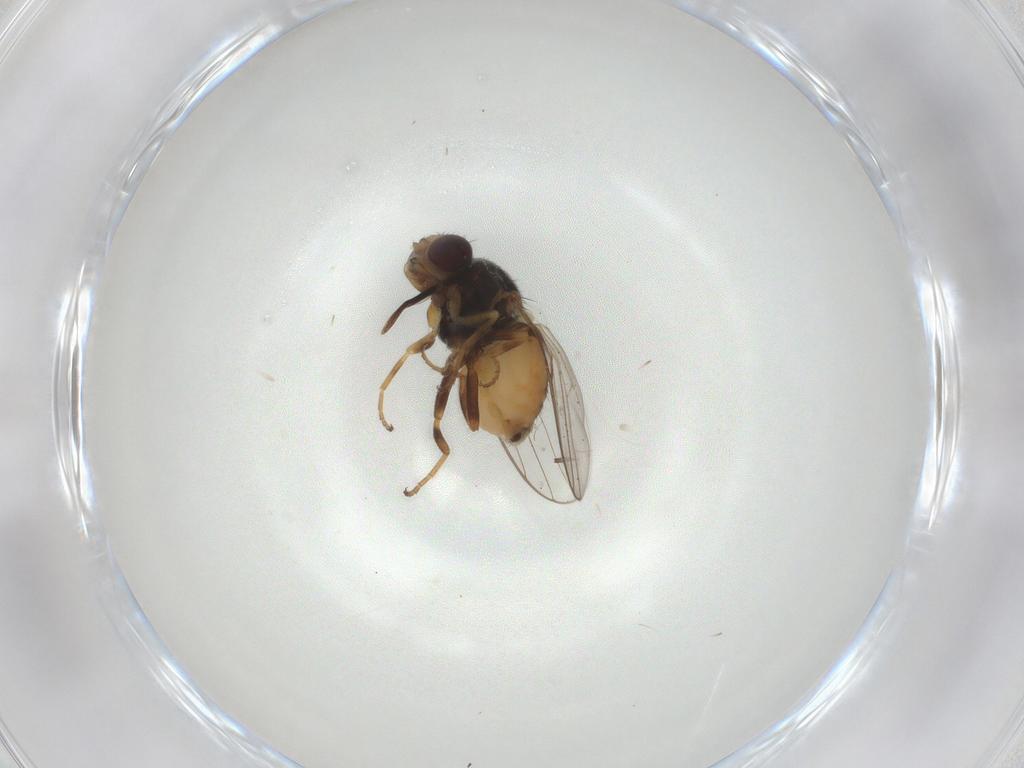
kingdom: Animalia
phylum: Arthropoda
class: Insecta
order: Diptera
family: Chloropidae
